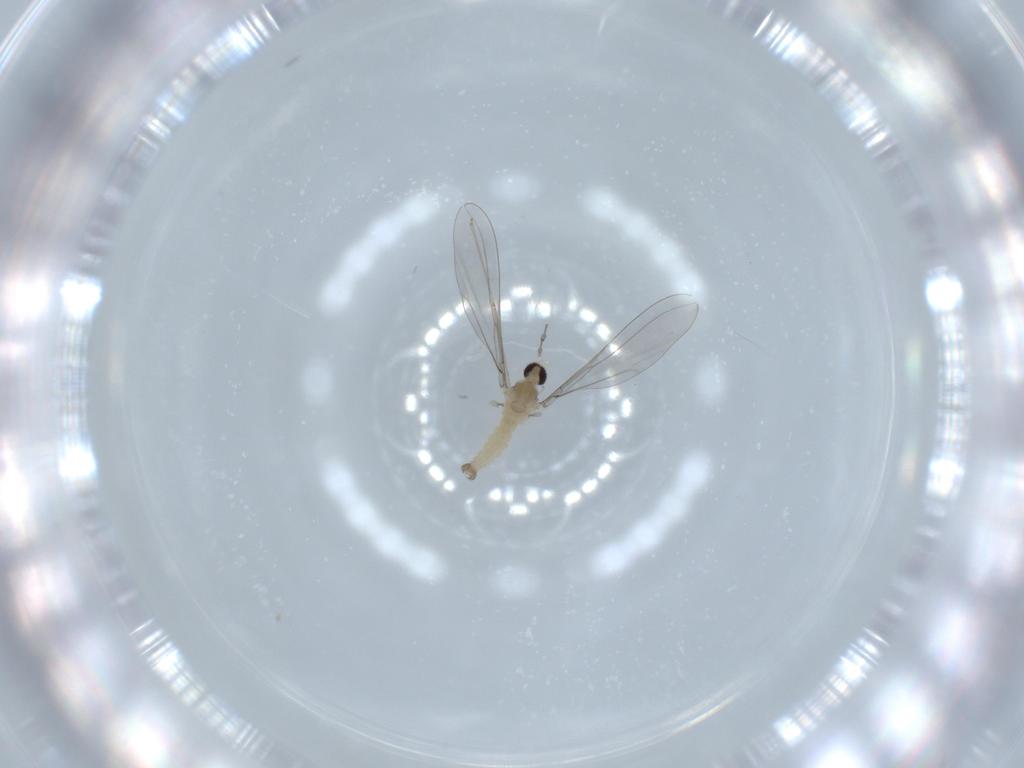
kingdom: Animalia
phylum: Arthropoda
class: Insecta
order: Diptera
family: Cecidomyiidae
